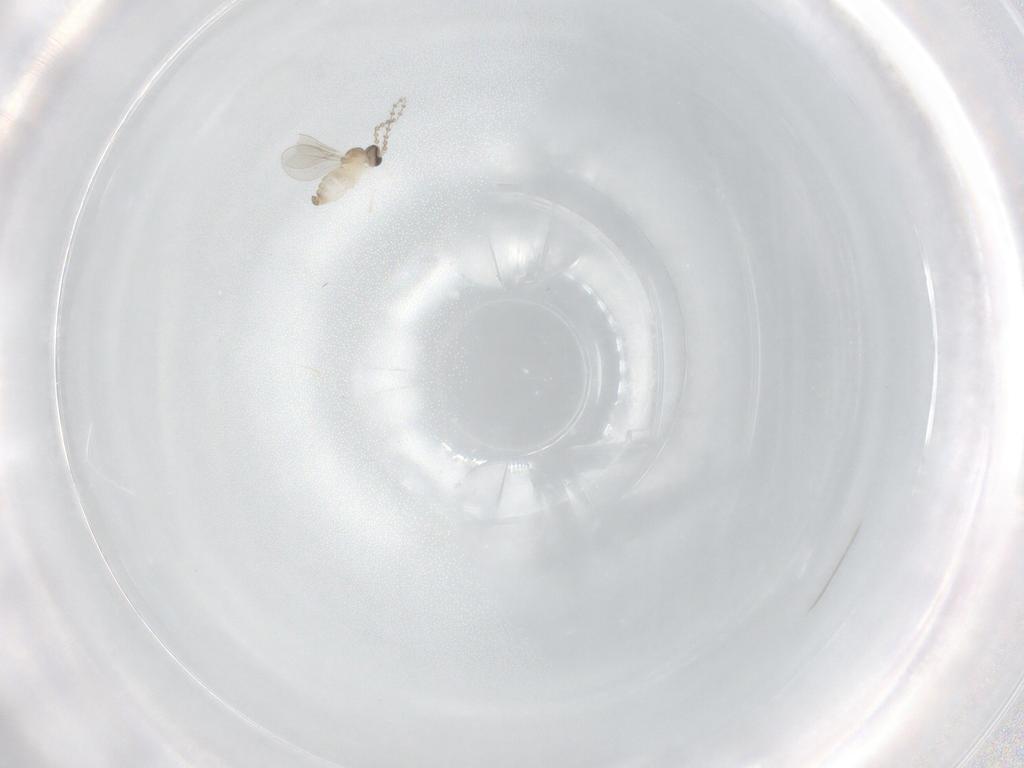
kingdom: Animalia
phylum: Arthropoda
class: Insecta
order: Diptera
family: Cecidomyiidae
